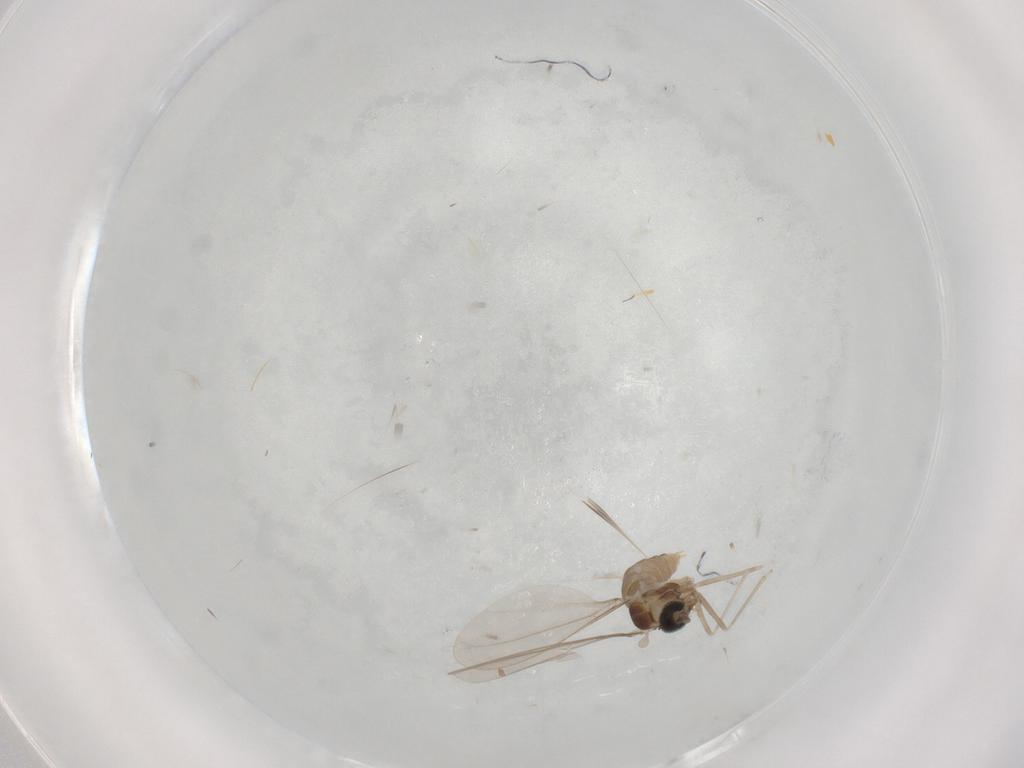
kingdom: Animalia
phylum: Arthropoda
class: Insecta
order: Diptera
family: Cecidomyiidae
